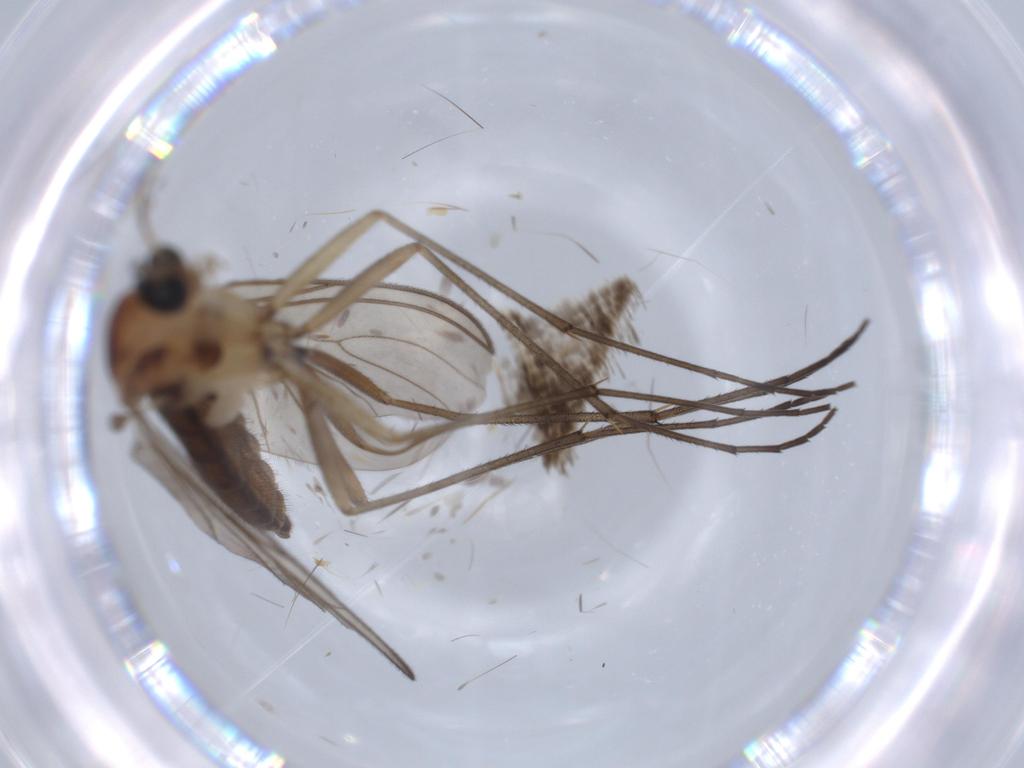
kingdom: Animalia
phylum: Arthropoda
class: Insecta
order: Diptera
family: Sciaridae
